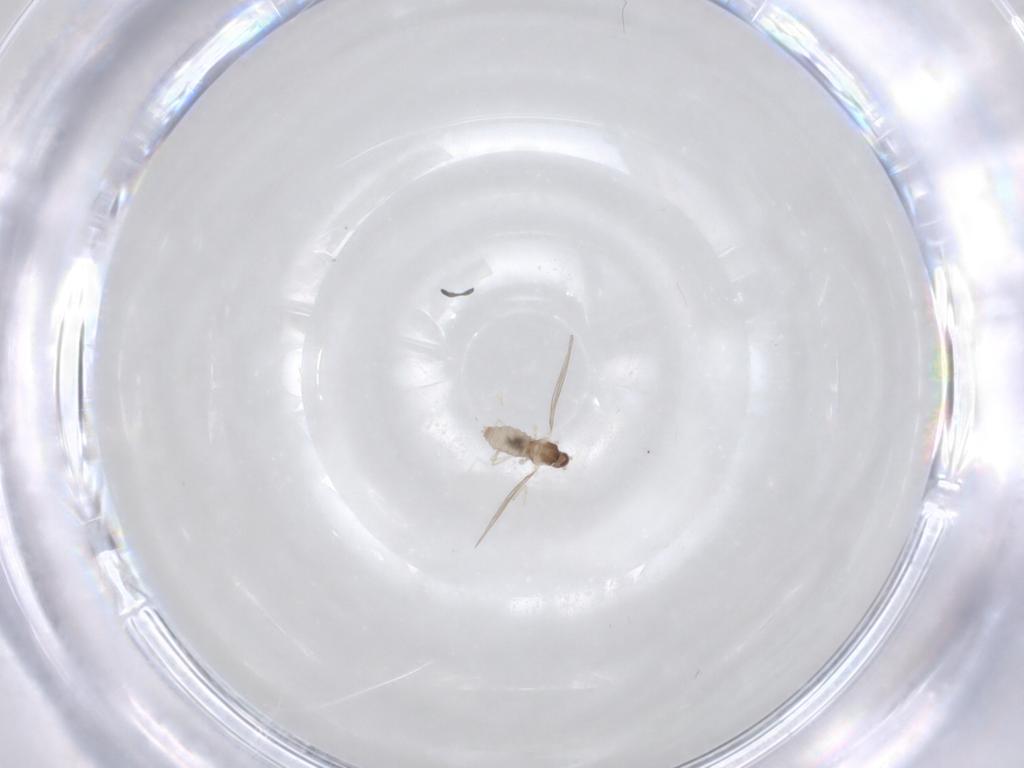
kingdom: Animalia
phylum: Arthropoda
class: Insecta
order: Diptera
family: Cecidomyiidae
